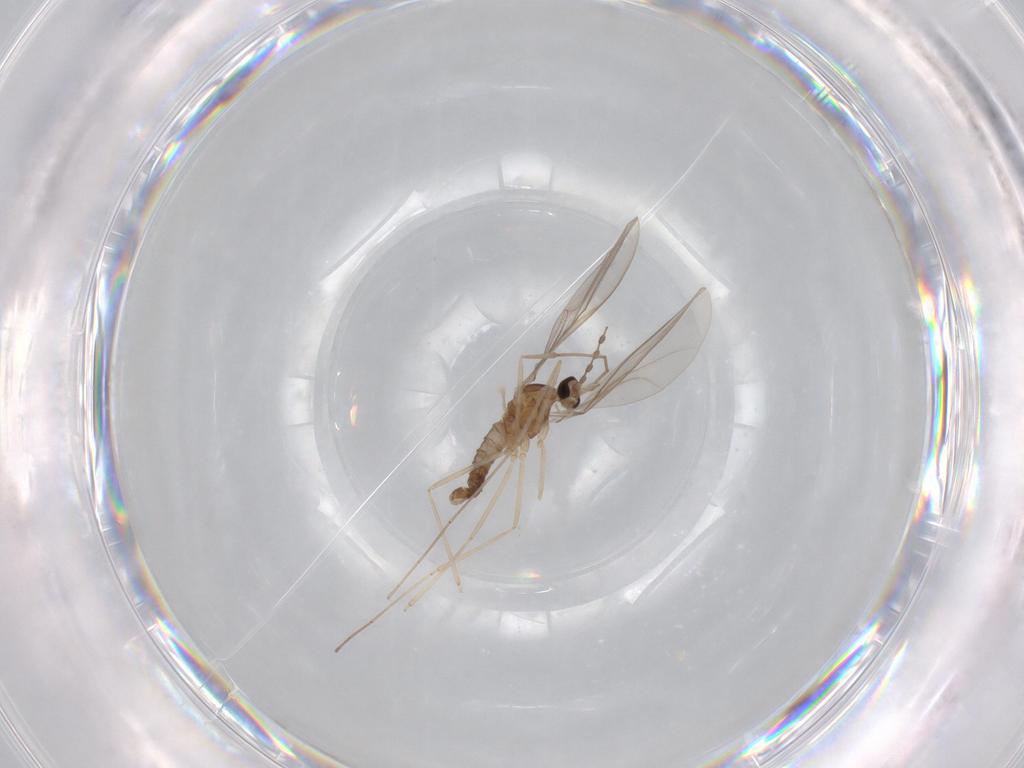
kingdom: Animalia
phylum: Arthropoda
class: Insecta
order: Diptera
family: Cecidomyiidae
